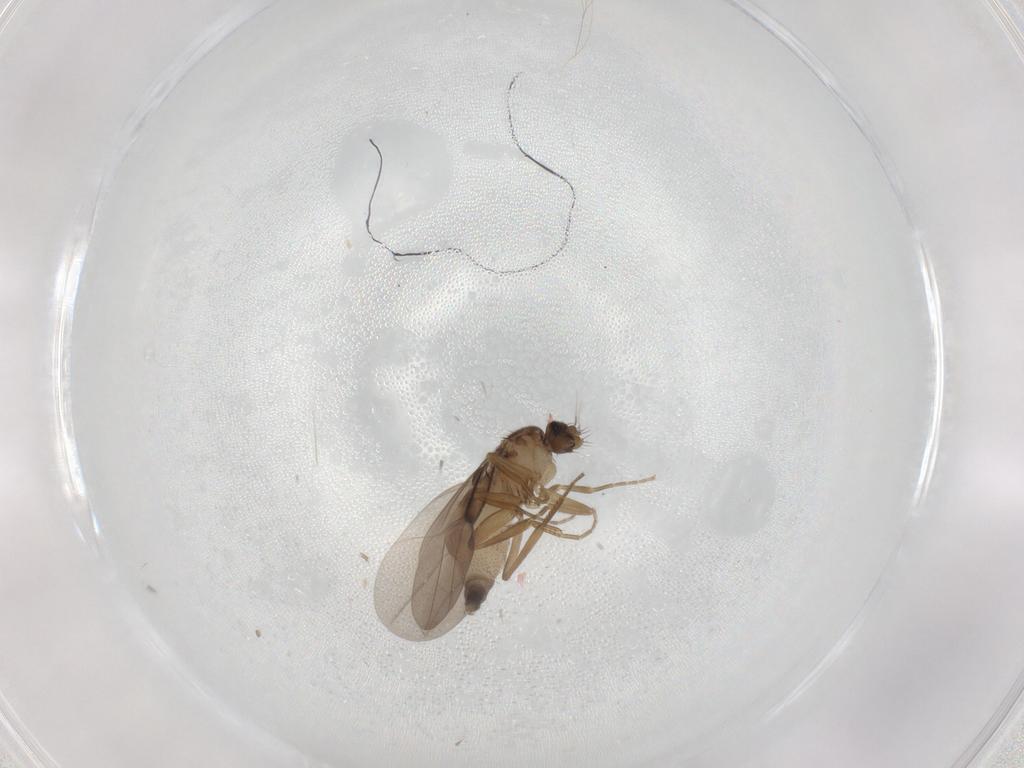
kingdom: Animalia
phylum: Arthropoda
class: Insecta
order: Diptera
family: Phoridae
